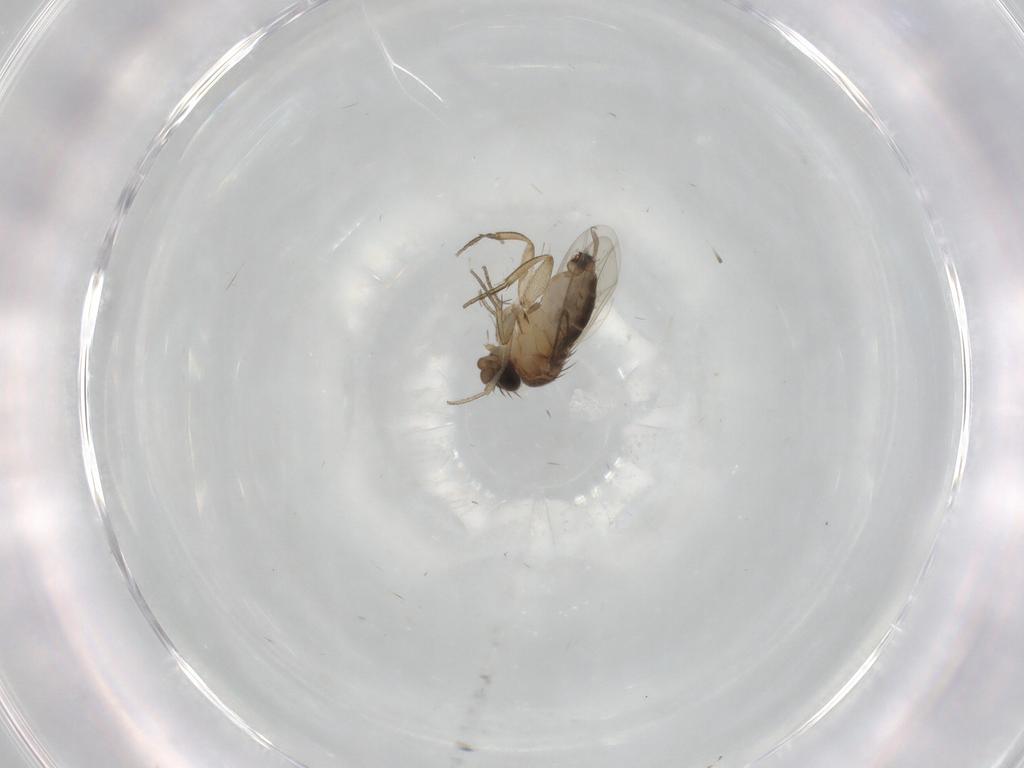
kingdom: Animalia
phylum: Arthropoda
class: Insecta
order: Diptera
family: Phoridae
